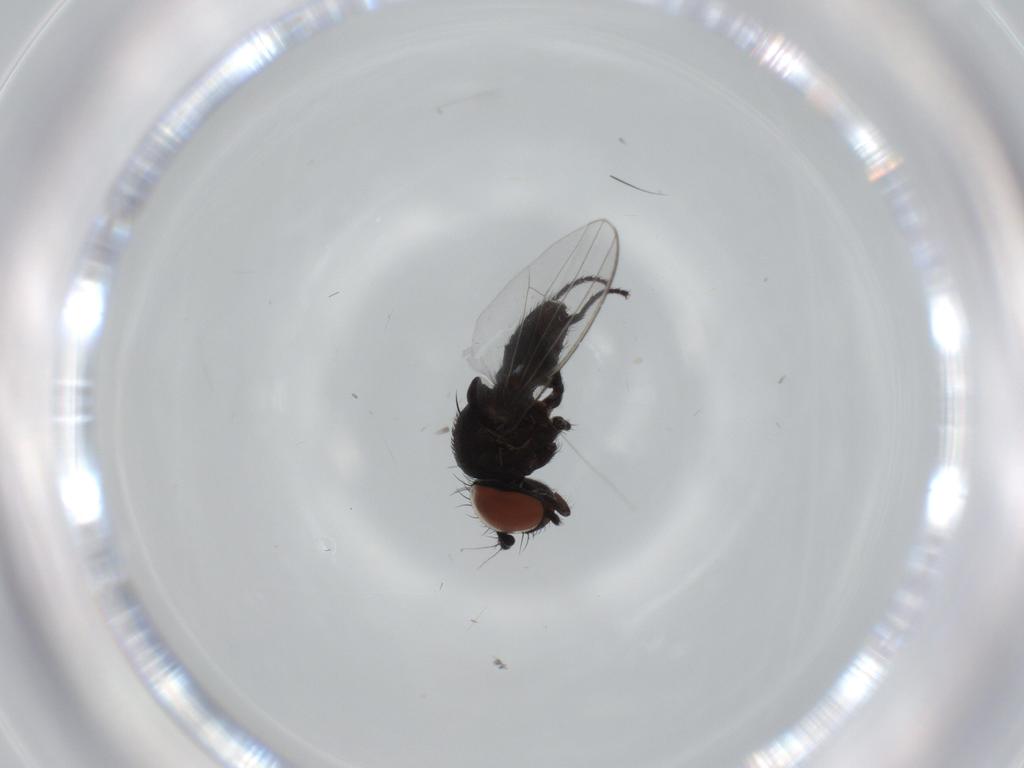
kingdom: Animalia
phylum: Arthropoda
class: Insecta
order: Diptera
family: Milichiidae
